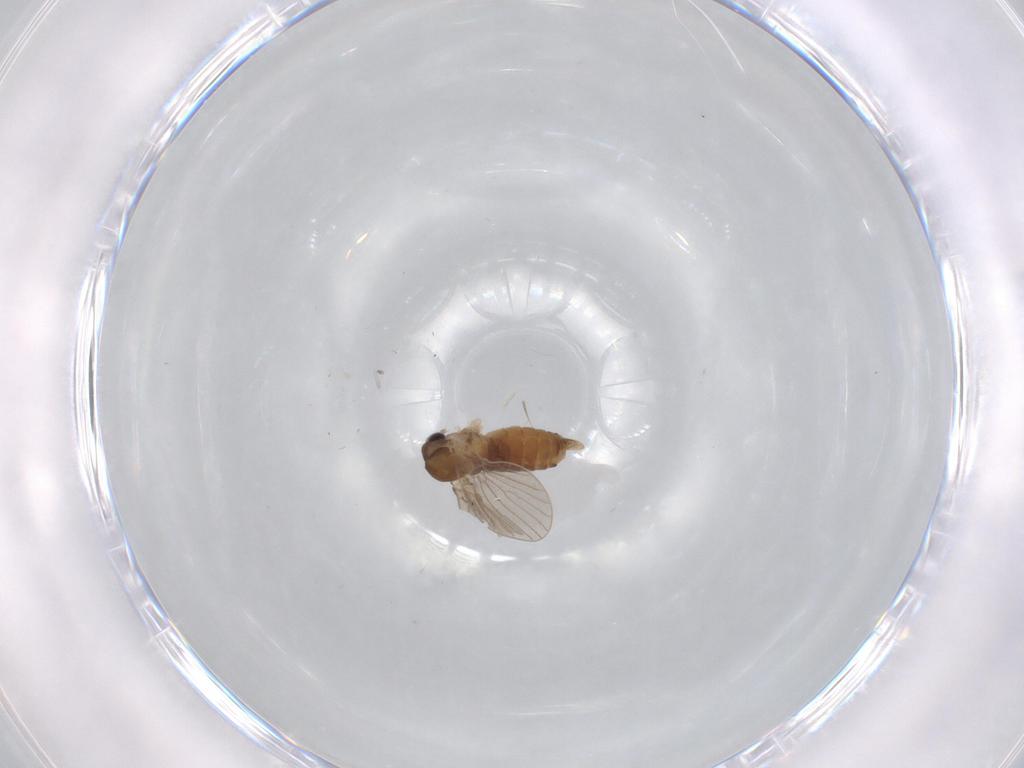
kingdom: Animalia
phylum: Arthropoda
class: Insecta
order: Diptera
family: Psychodidae
